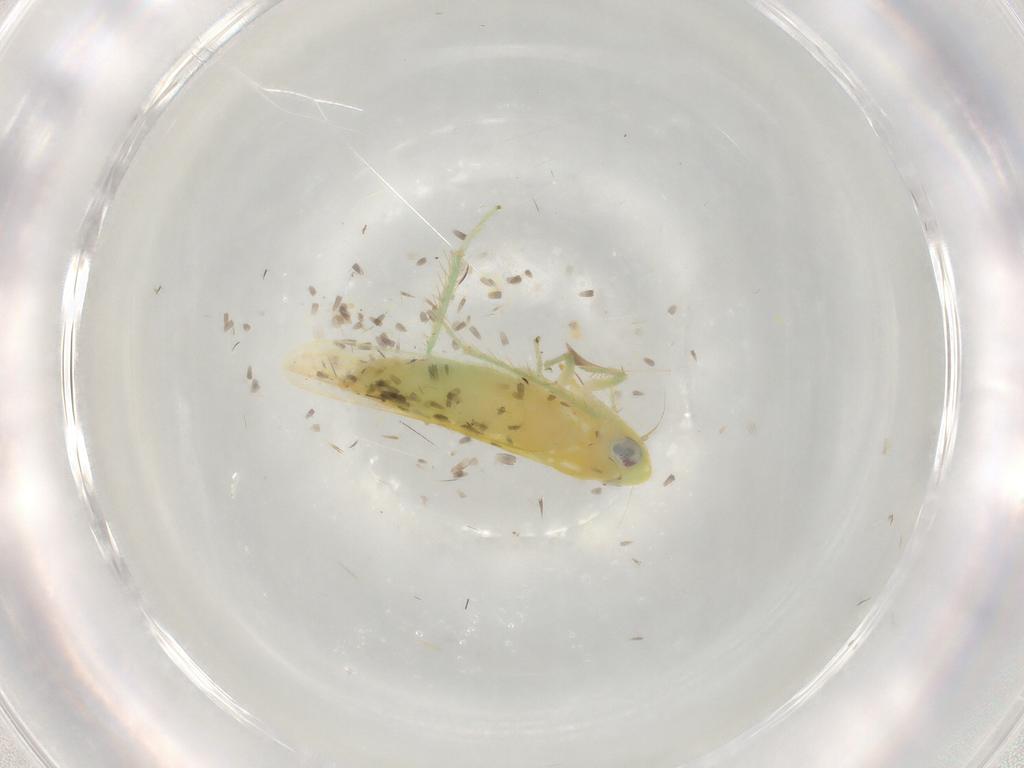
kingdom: Animalia
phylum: Arthropoda
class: Insecta
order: Hemiptera
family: Cicadellidae
